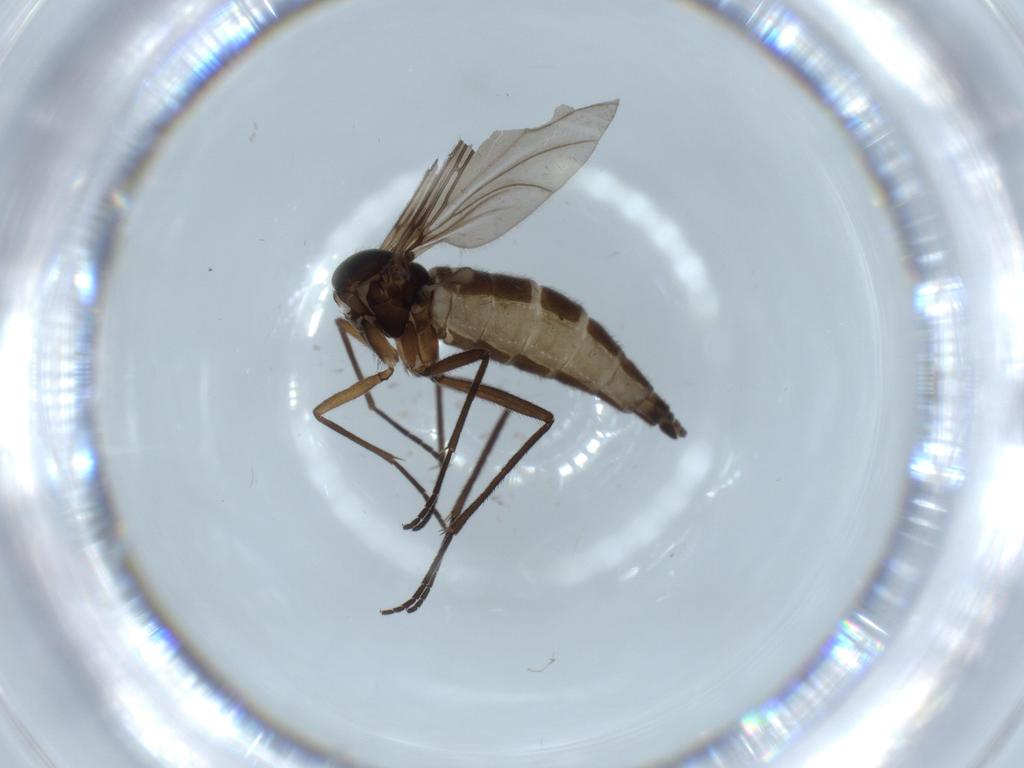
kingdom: Animalia
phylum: Arthropoda
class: Insecta
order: Diptera
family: Sciaridae
